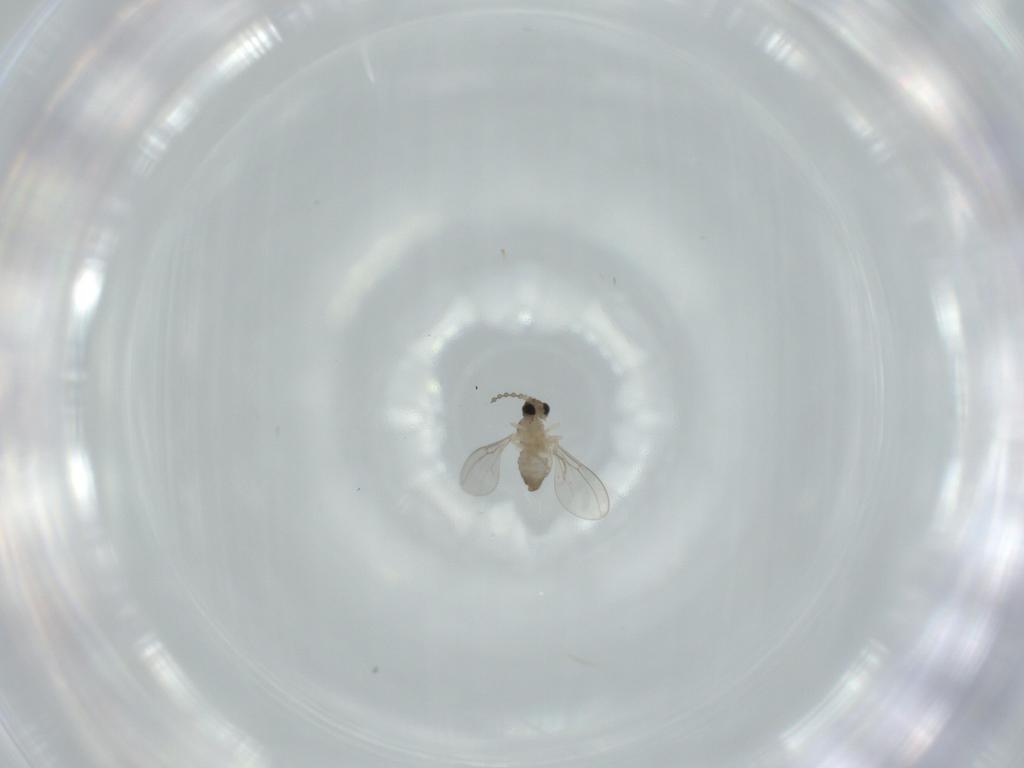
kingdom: Animalia
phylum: Arthropoda
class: Insecta
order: Diptera
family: Cecidomyiidae
